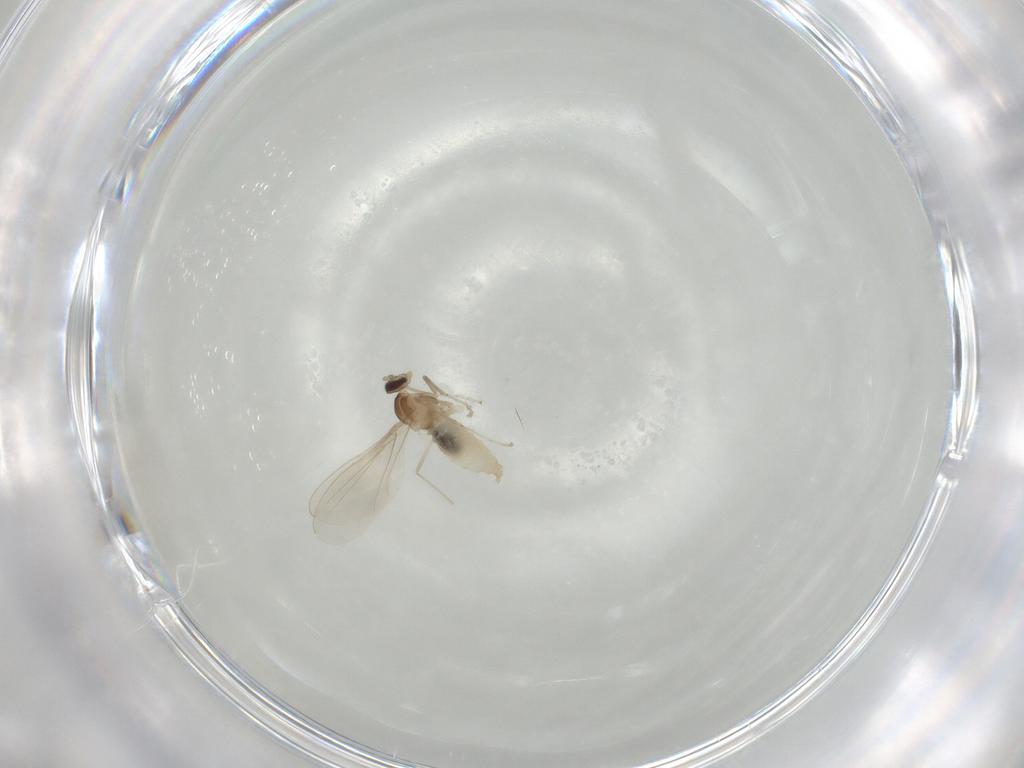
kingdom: Animalia
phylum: Arthropoda
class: Insecta
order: Diptera
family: Cecidomyiidae
